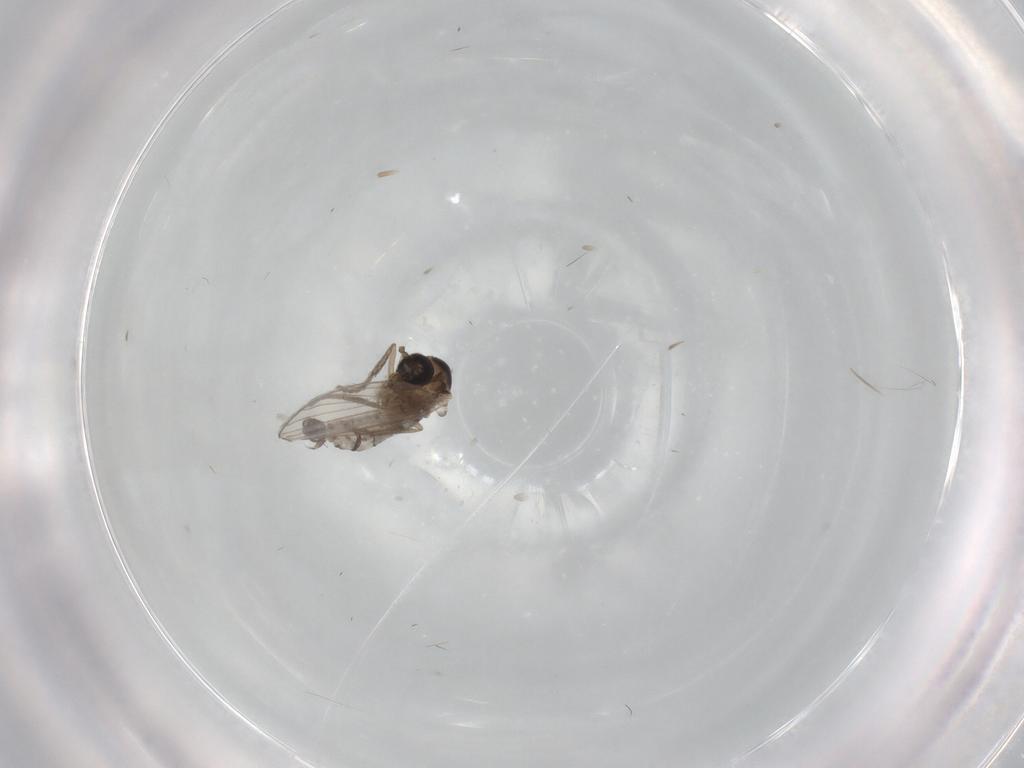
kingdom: Animalia
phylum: Arthropoda
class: Insecta
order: Diptera
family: Psychodidae
